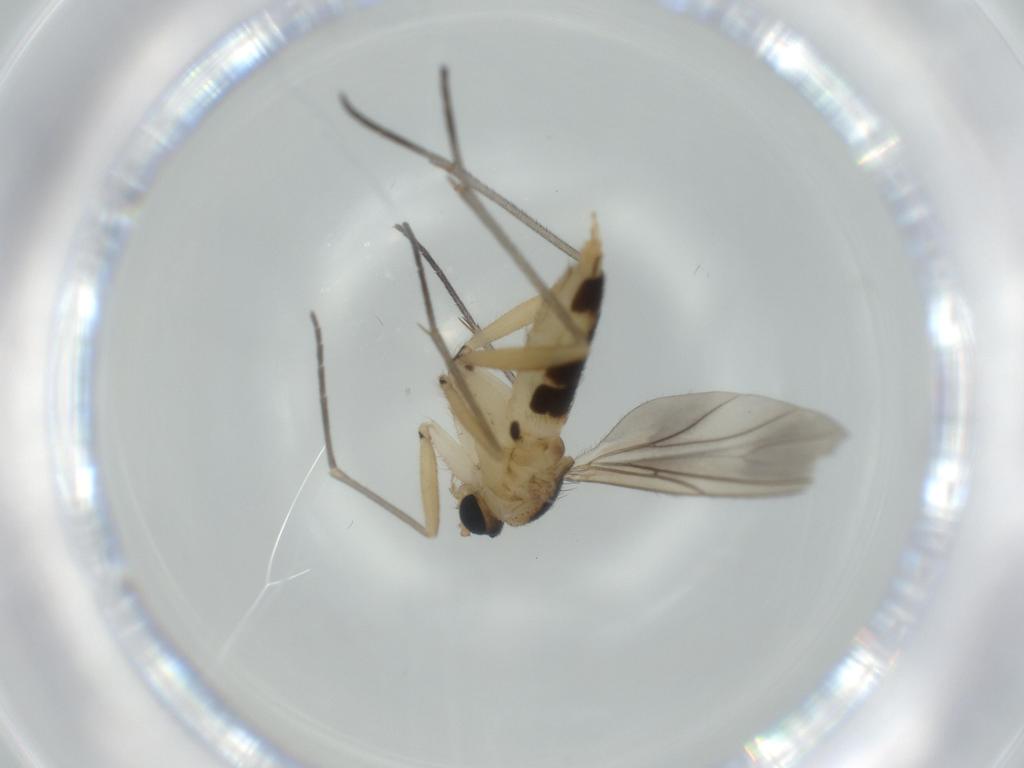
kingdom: Animalia
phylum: Arthropoda
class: Insecta
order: Diptera
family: Sciaridae
